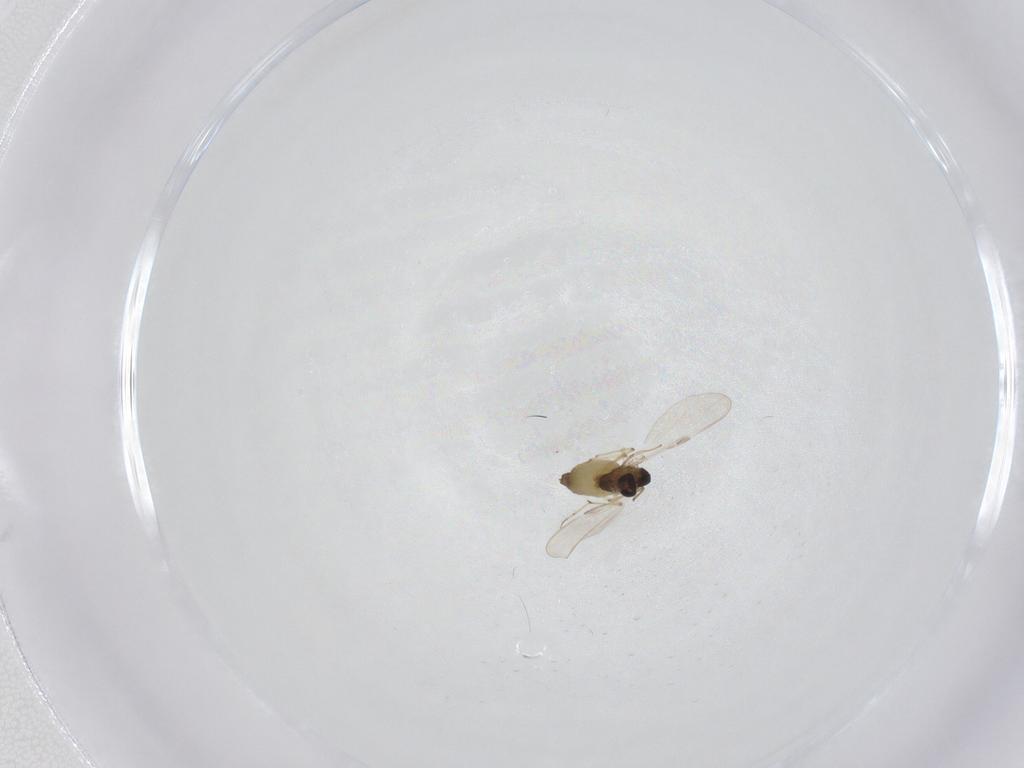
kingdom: Animalia
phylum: Arthropoda
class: Insecta
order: Diptera
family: Chironomidae
